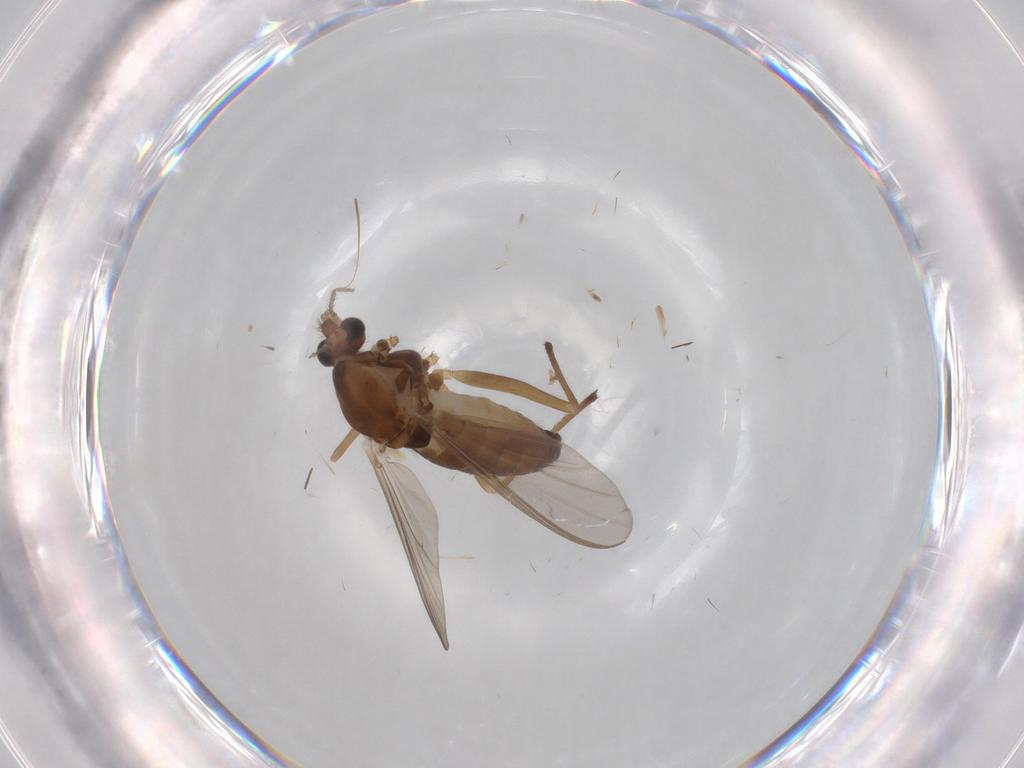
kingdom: Animalia
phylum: Arthropoda
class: Insecta
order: Diptera
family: Chironomidae
